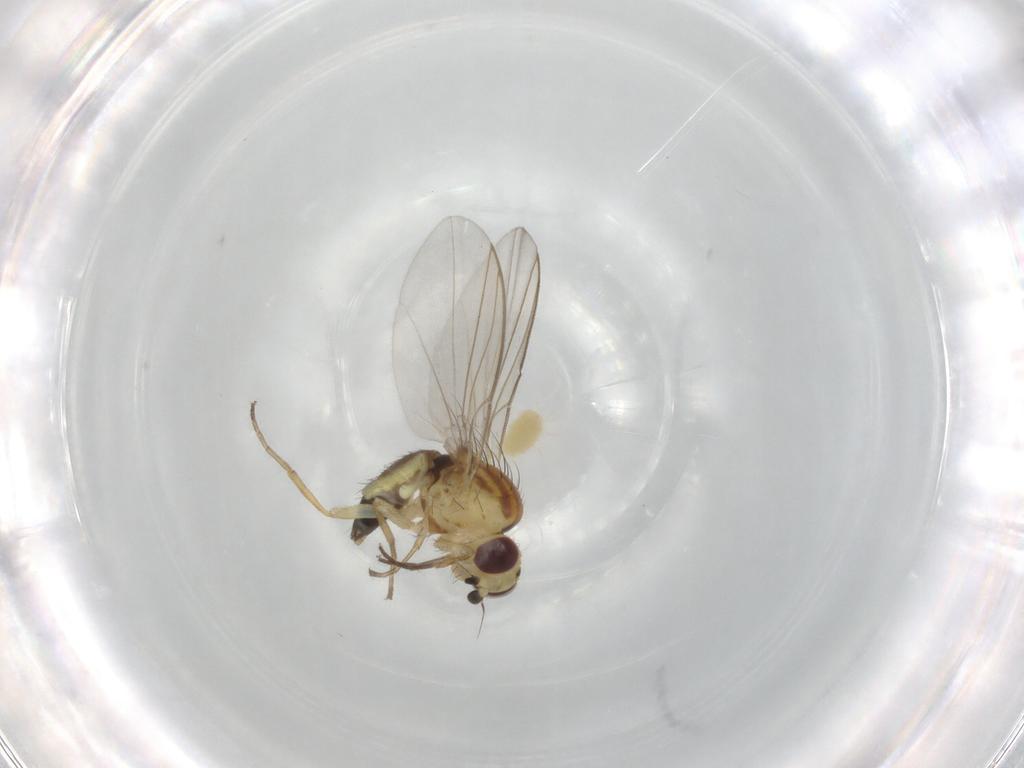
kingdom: Animalia
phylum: Arthropoda
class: Insecta
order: Diptera
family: Agromyzidae
